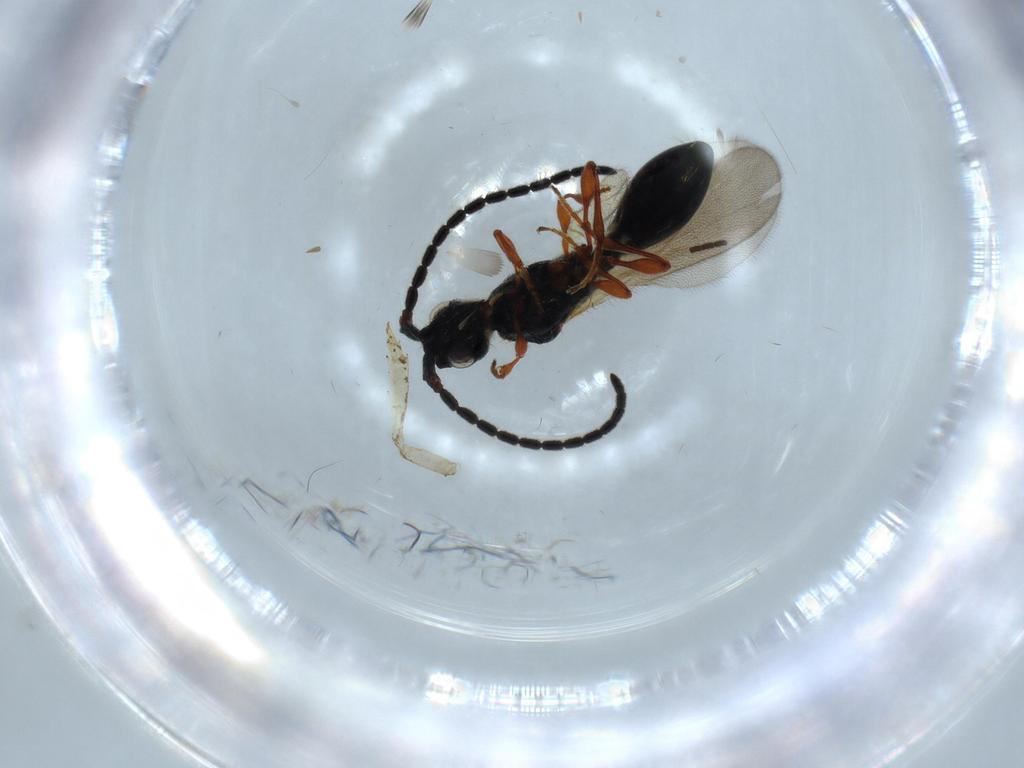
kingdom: Animalia
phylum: Arthropoda
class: Insecta
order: Hymenoptera
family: Diapriidae
